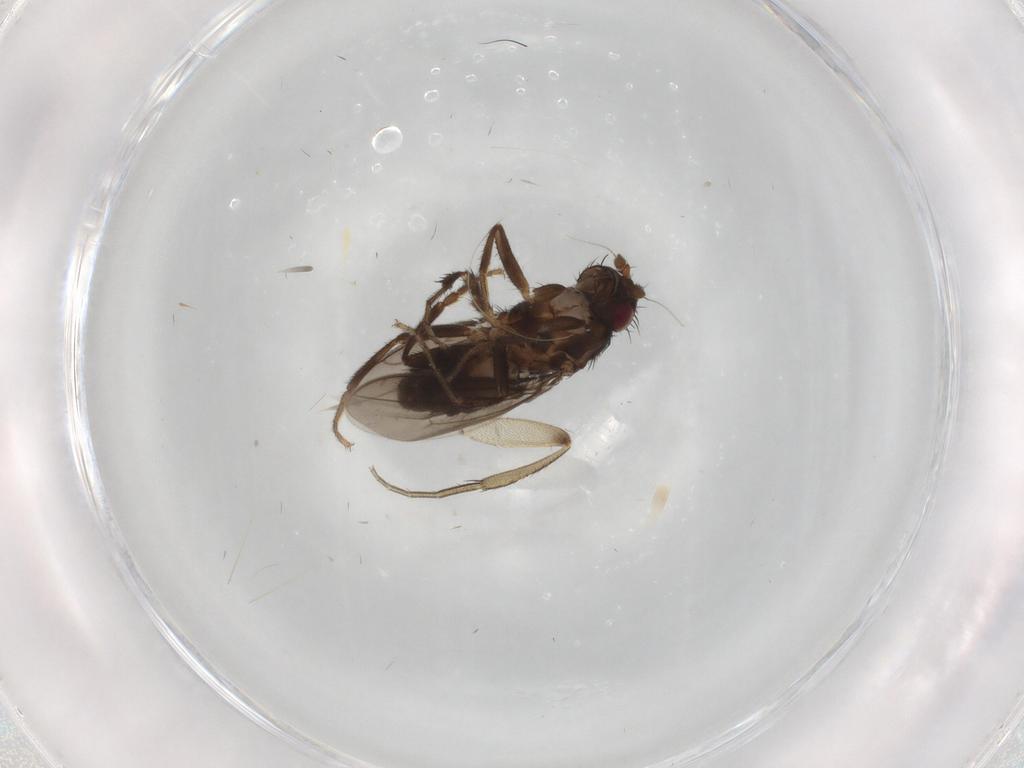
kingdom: Animalia
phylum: Arthropoda
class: Insecta
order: Diptera
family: Sphaeroceridae
